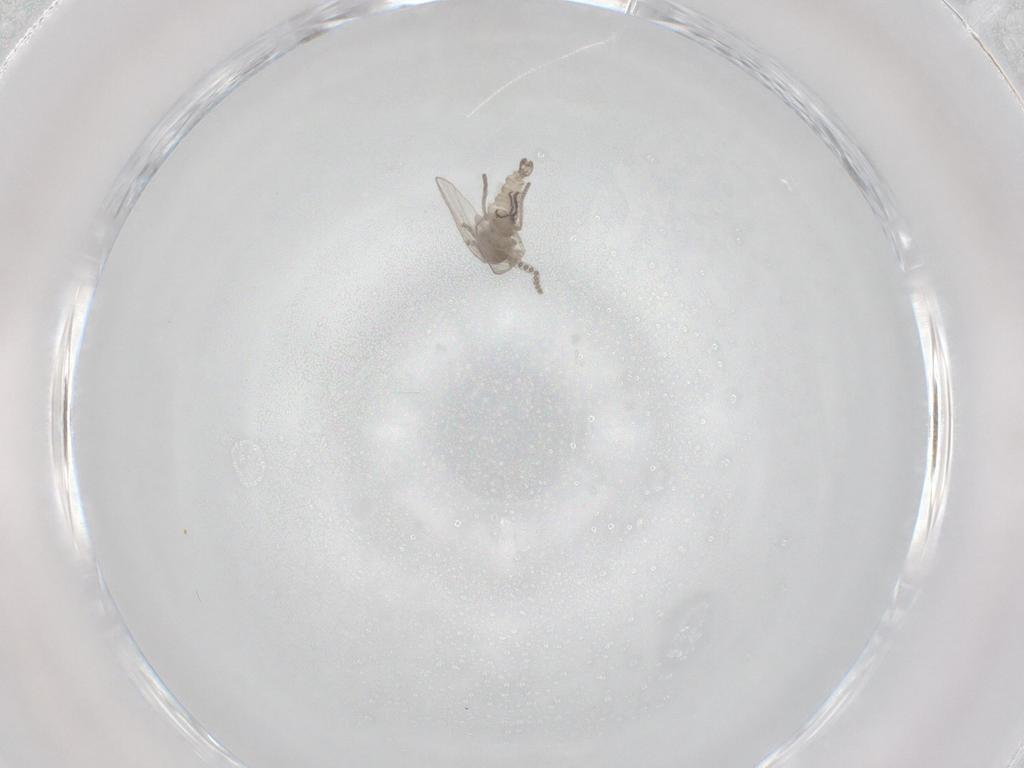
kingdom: Animalia
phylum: Arthropoda
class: Insecta
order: Diptera
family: Psychodidae
